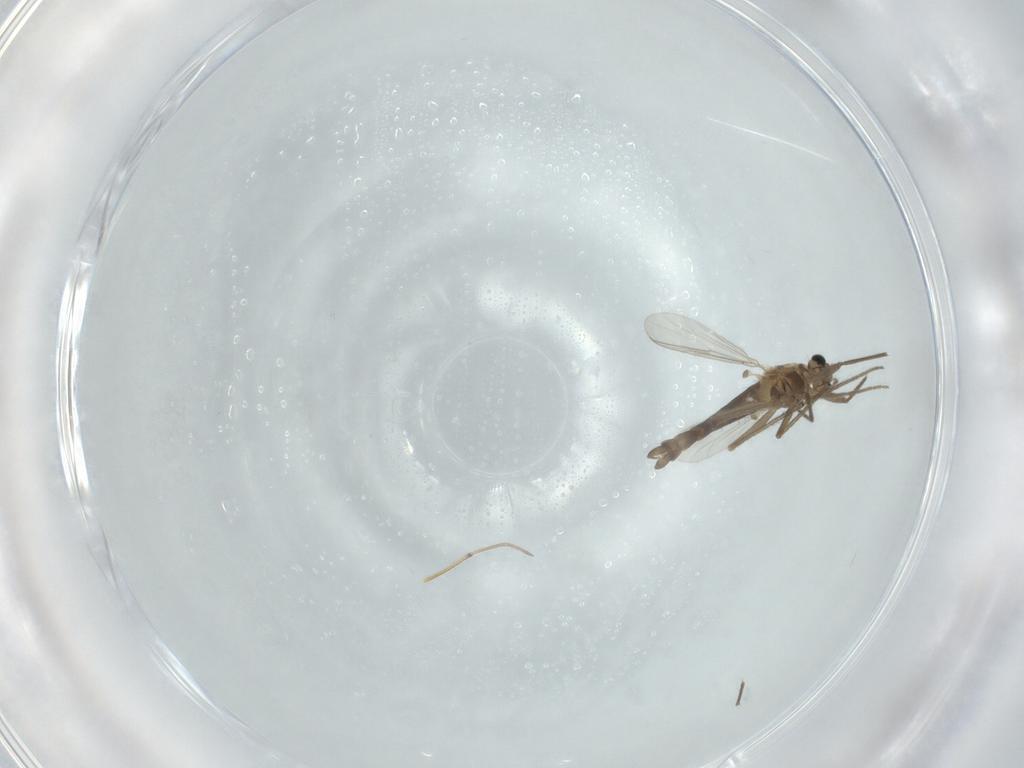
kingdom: Animalia
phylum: Arthropoda
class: Insecta
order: Diptera
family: Chironomidae
